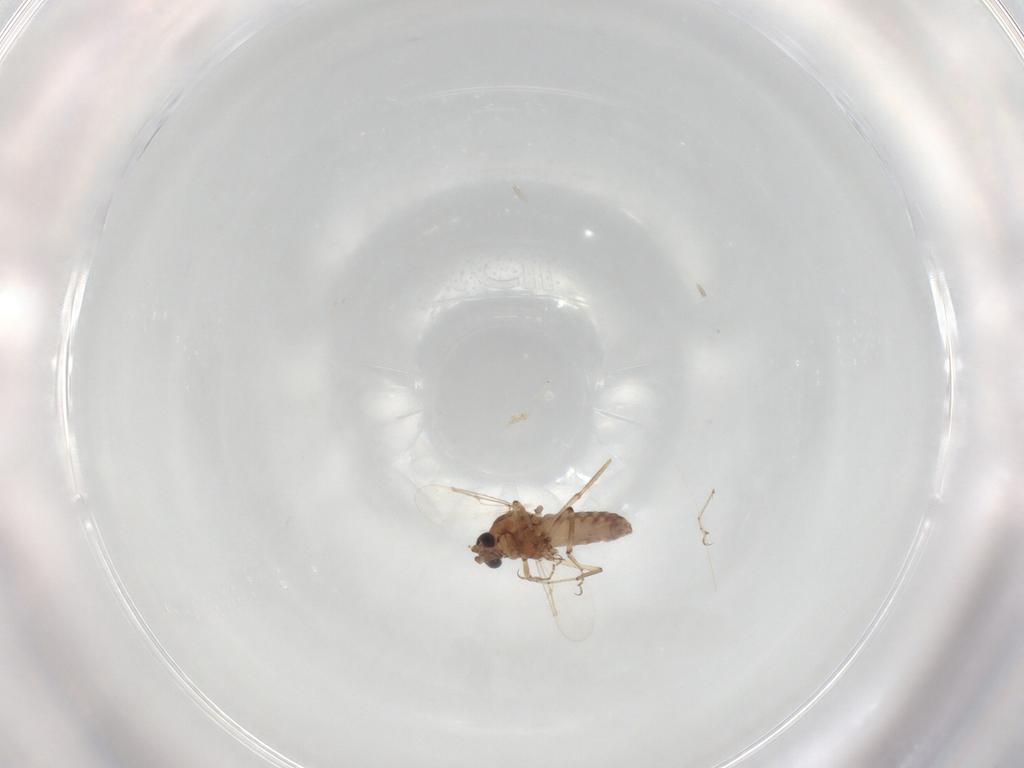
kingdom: Animalia
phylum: Arthropoda
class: Insecta
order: Diptera
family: Ceratopogonidae
